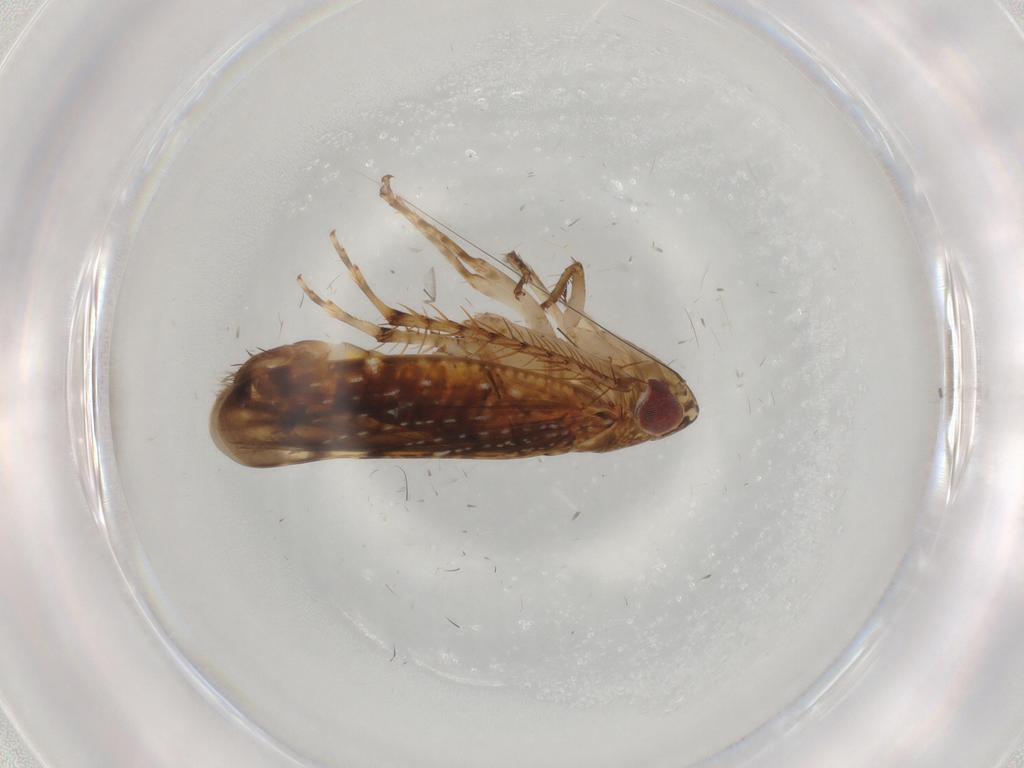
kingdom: Animalia
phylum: Arthropoda
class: Insecta
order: Hemiptera
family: Cicadellidae
